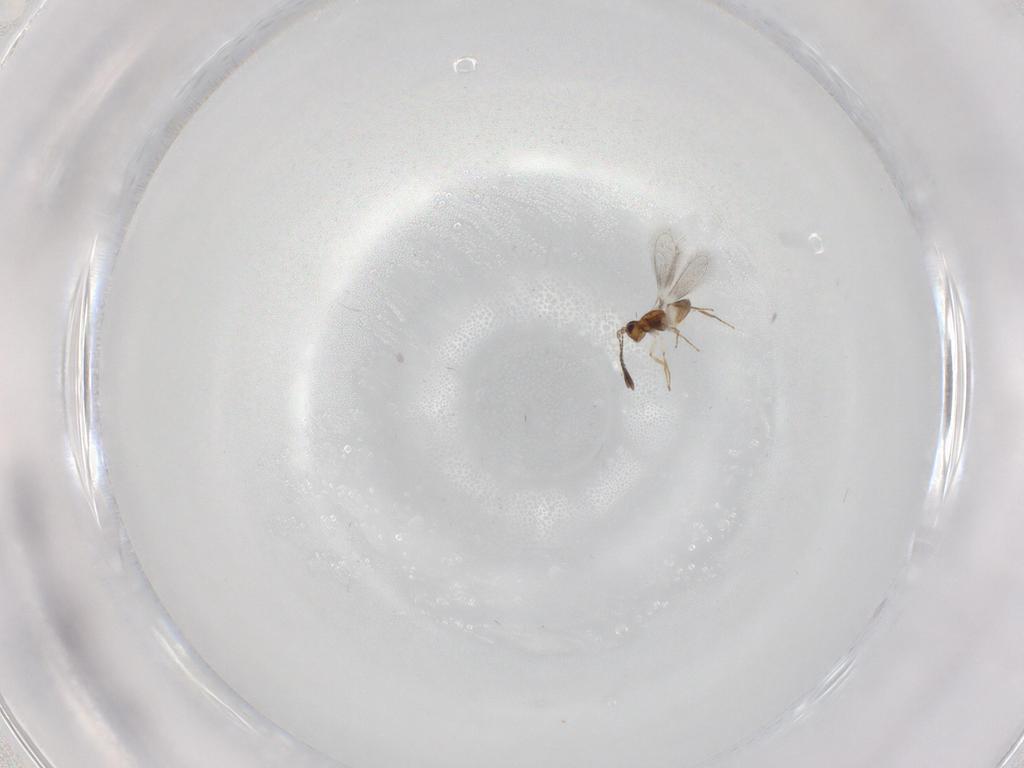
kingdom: Animalia
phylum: Arthropoda
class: Insecta
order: Hymenoptera
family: Mymaridae
